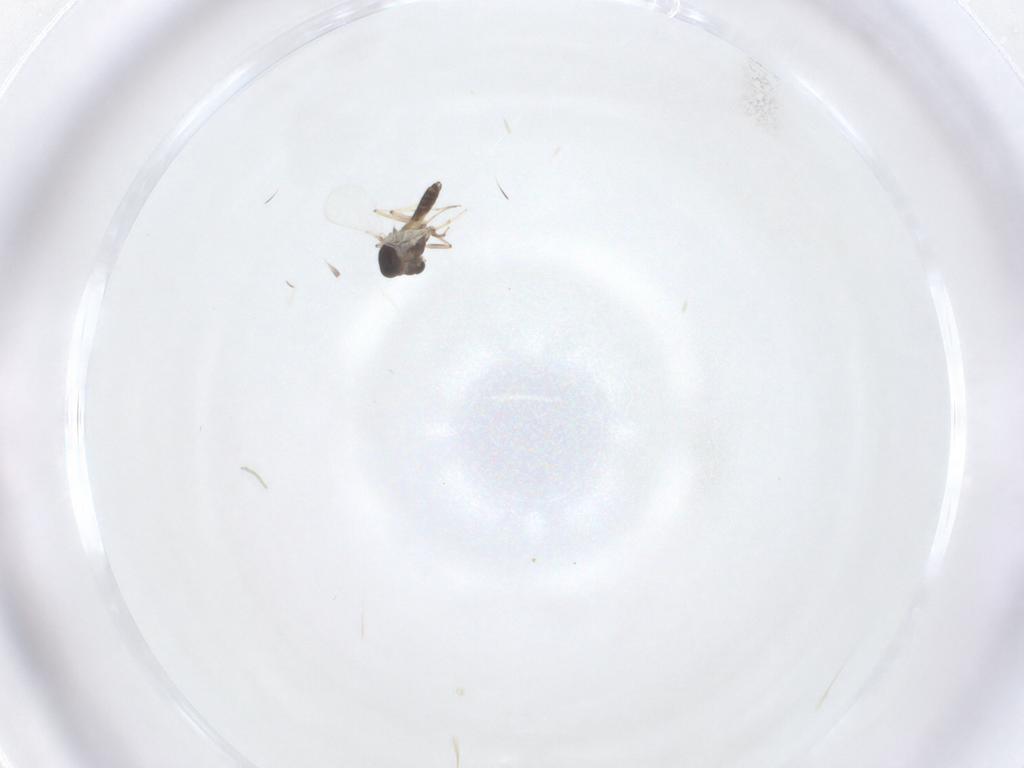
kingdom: Animalia
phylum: Arthropoda
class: Insecta
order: Diptera
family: Chironomidae
